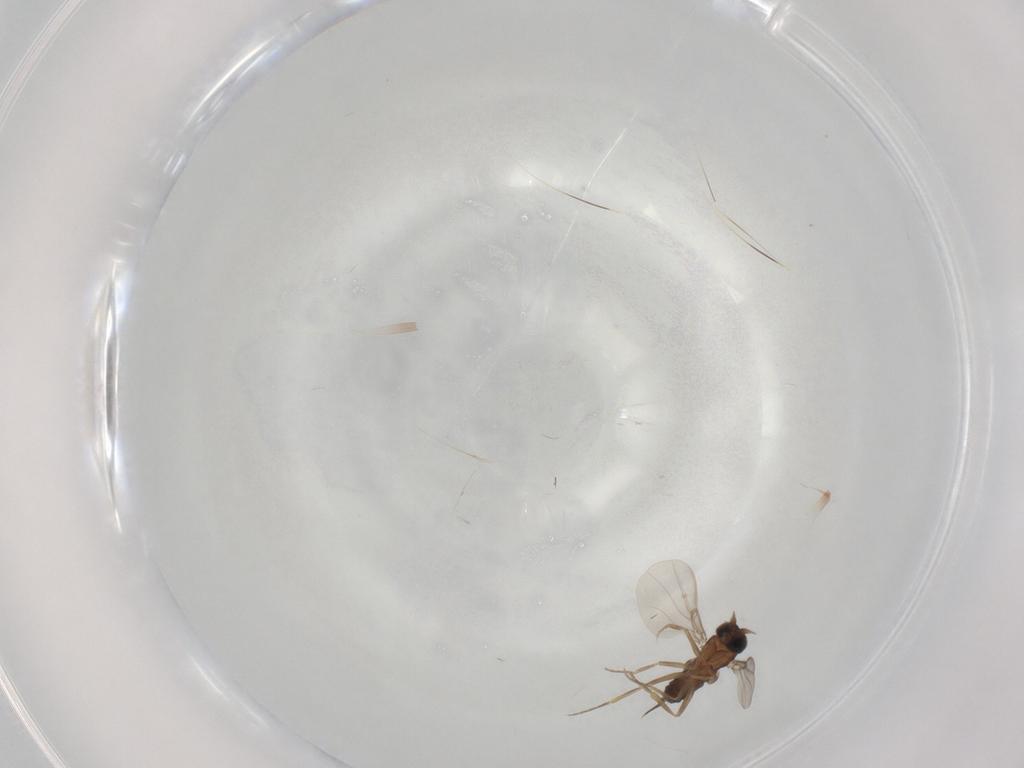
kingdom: Animalia
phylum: Arthropoda
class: Insecta
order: Diptera
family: Phoridae
